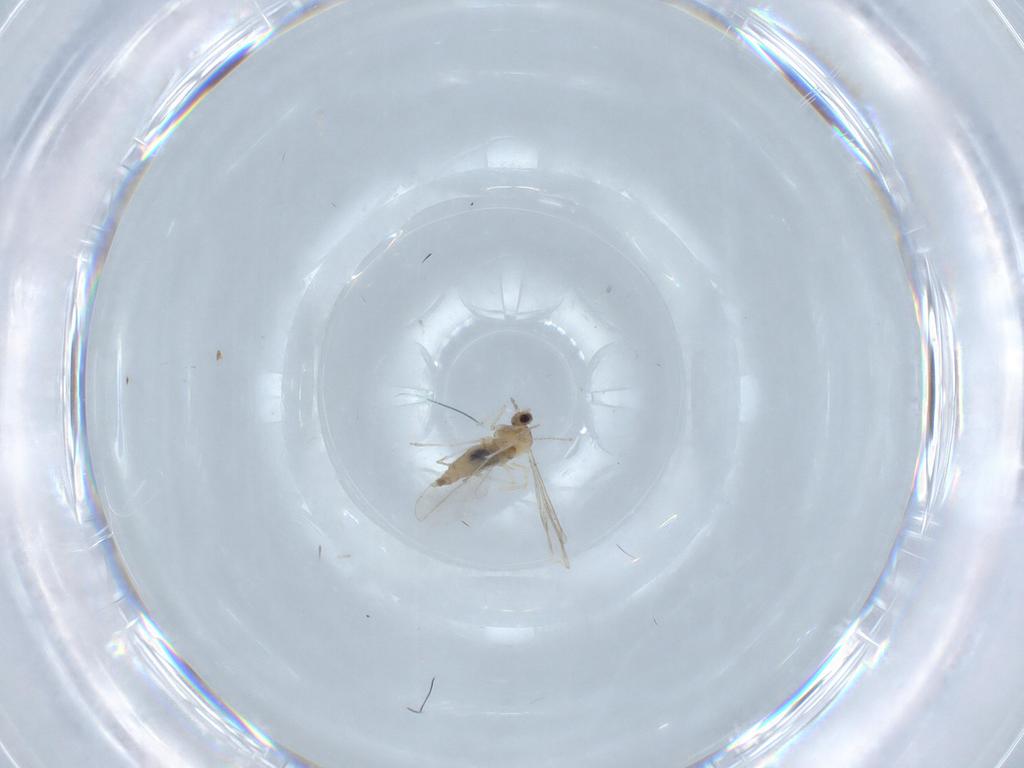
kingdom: Animalia
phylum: Arthropoda
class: Insecta
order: Diptera
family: Cecidomyiidae
